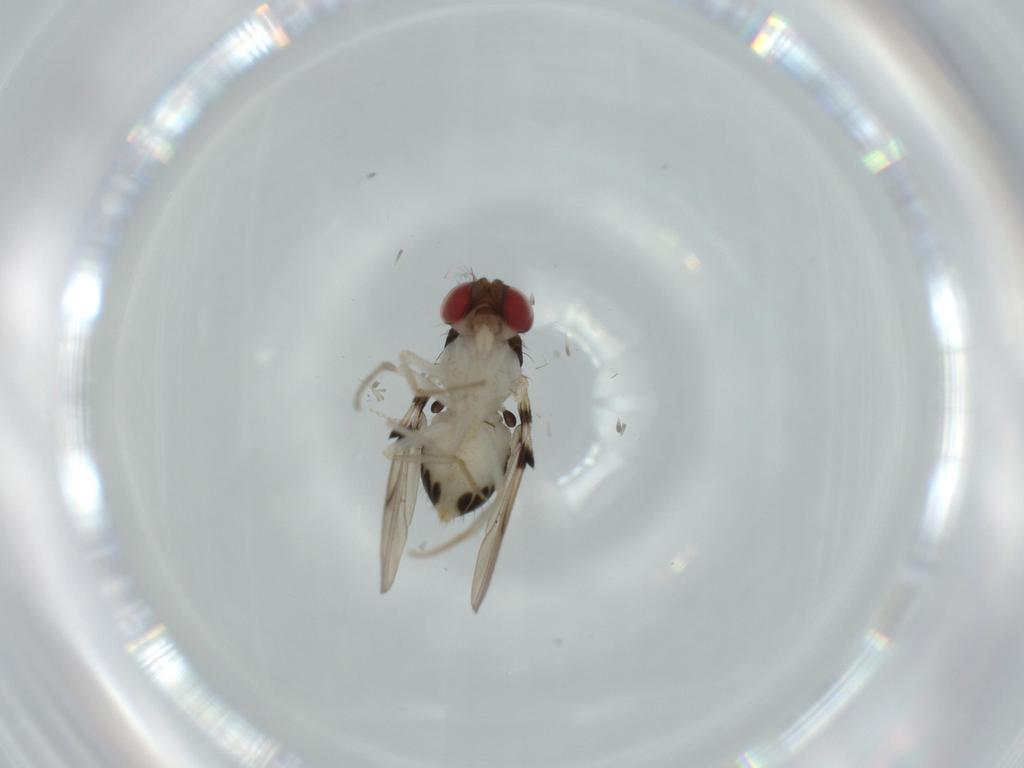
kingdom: Animalia
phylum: Arthropoda
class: Insecta
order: Diptera
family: Drosophilidae
